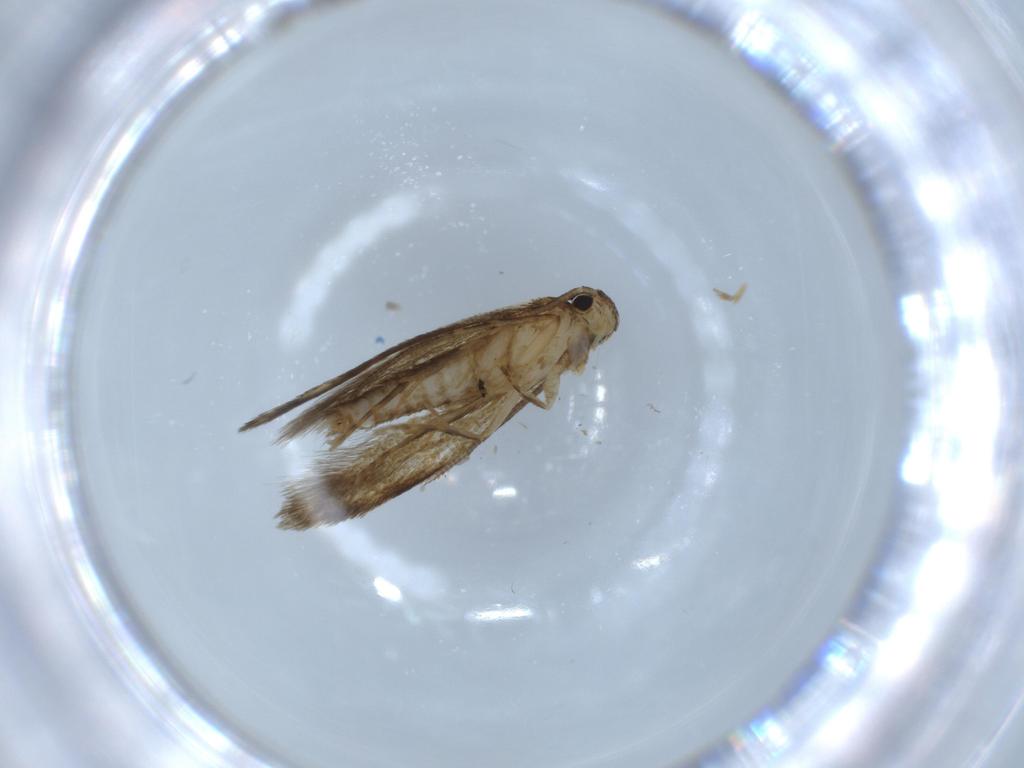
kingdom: Animalia
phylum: Arthropoda
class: Insecta
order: Lepidoptera
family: Tineidae
